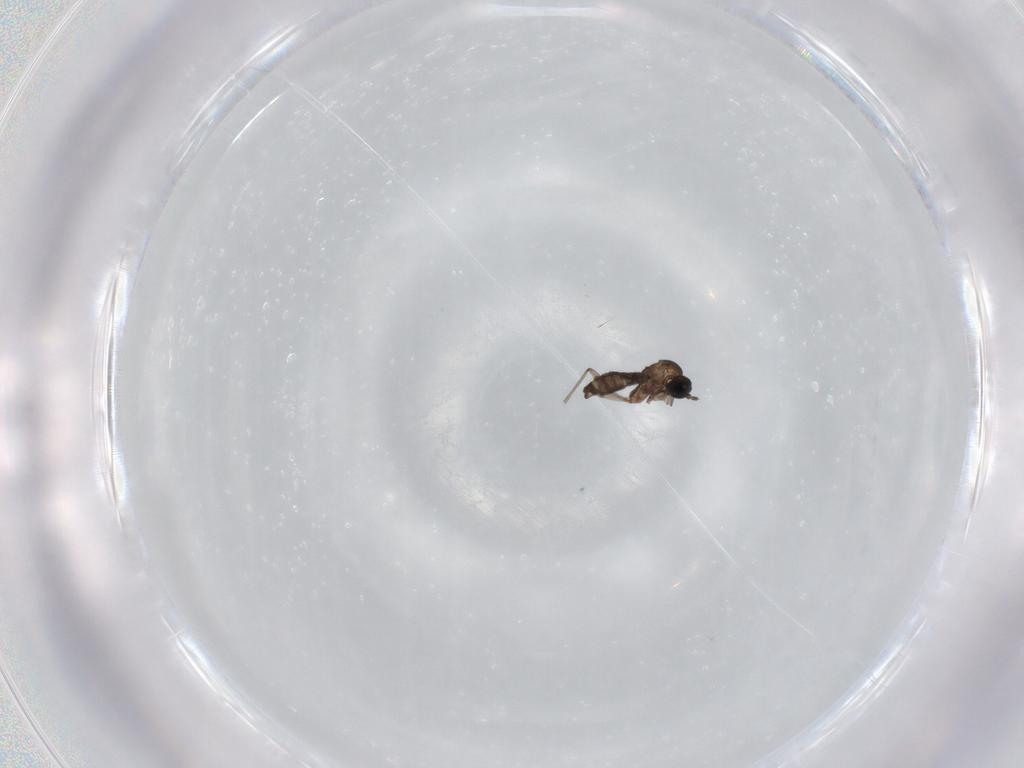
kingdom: Animalia
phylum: Arthropoda
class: Insecta
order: Diptera
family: Sciaridae
